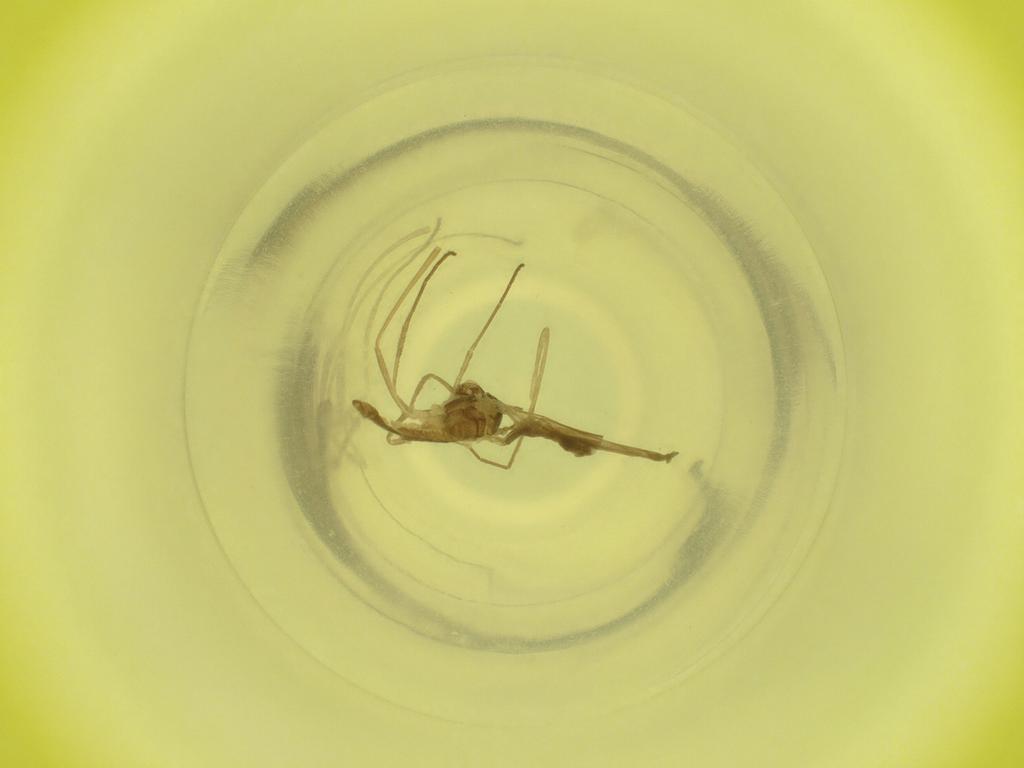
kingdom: Animalia
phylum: Arthropoda
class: Insecta
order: Diptera
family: Cecidomyiidae
